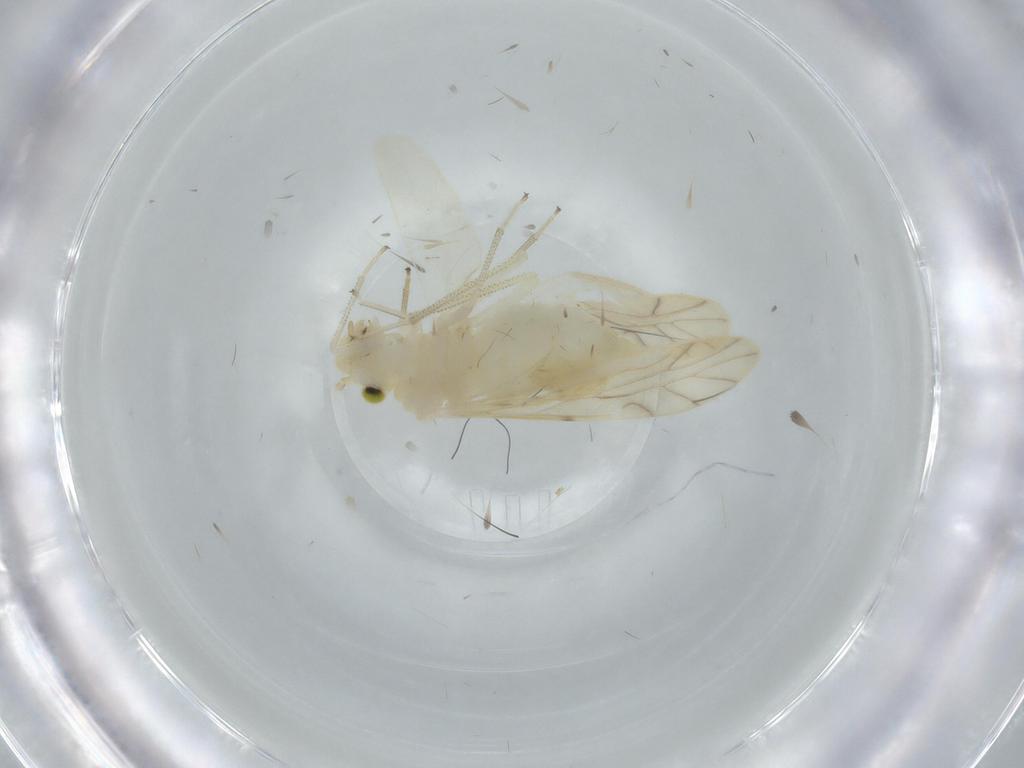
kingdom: Animalia
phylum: Arthropoda
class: Insecta
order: Psocodea
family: Caeciliusidae
